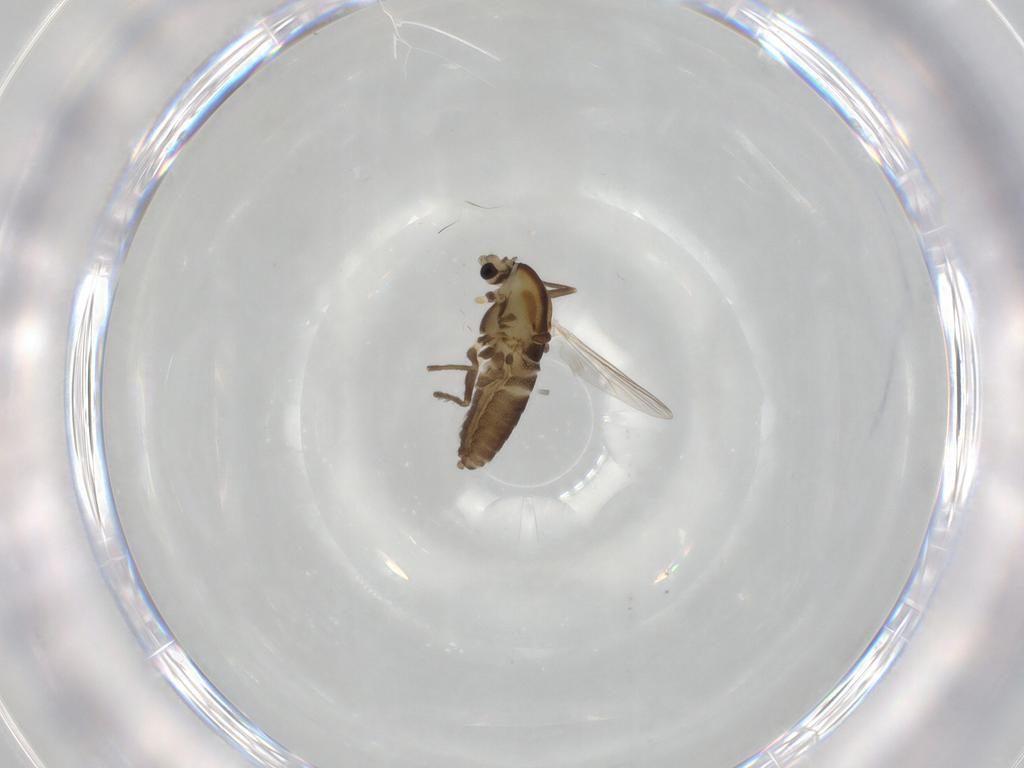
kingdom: Animalia
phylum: Arthropoda
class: Insecta
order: Diptera
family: Chironomidae
